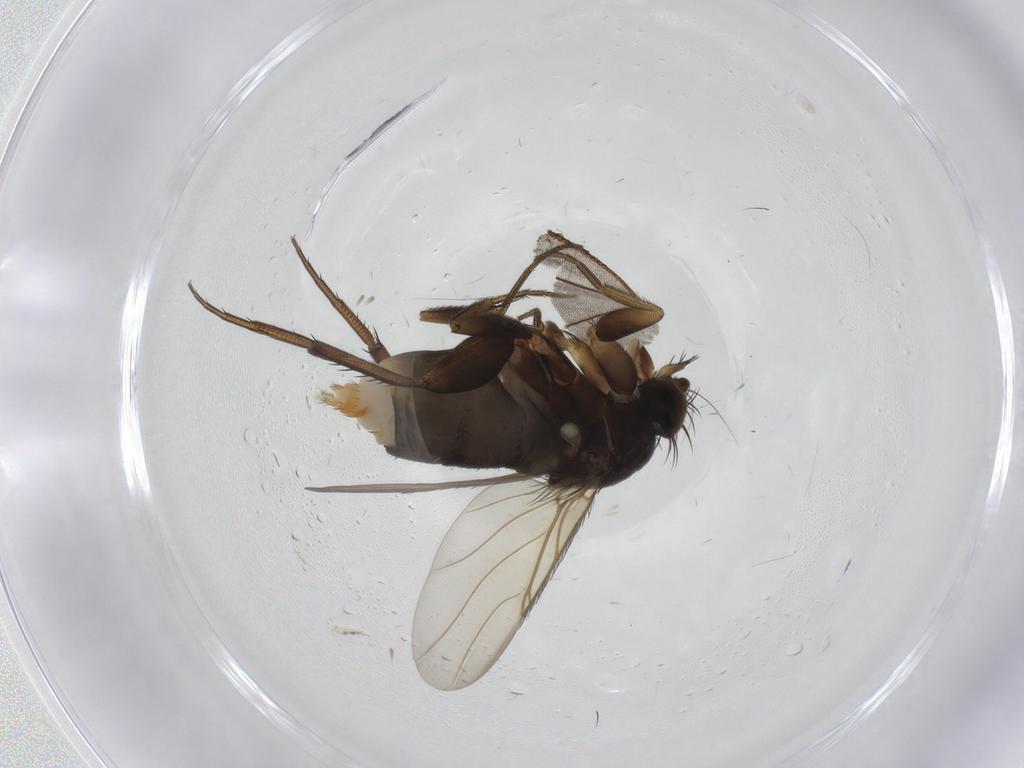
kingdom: Animalia
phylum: Arthropoda
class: Insecta
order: Diptera
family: Phoridae
